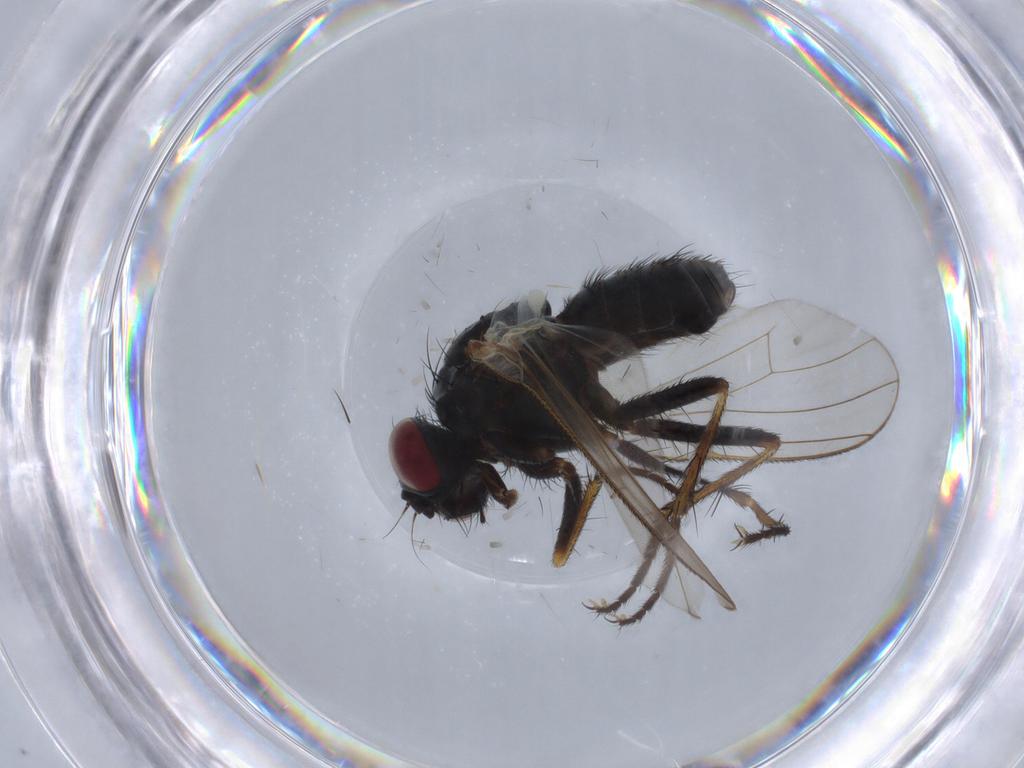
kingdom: Animalia
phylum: Arthropoda
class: Insecta
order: Diptera
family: Muscidae
